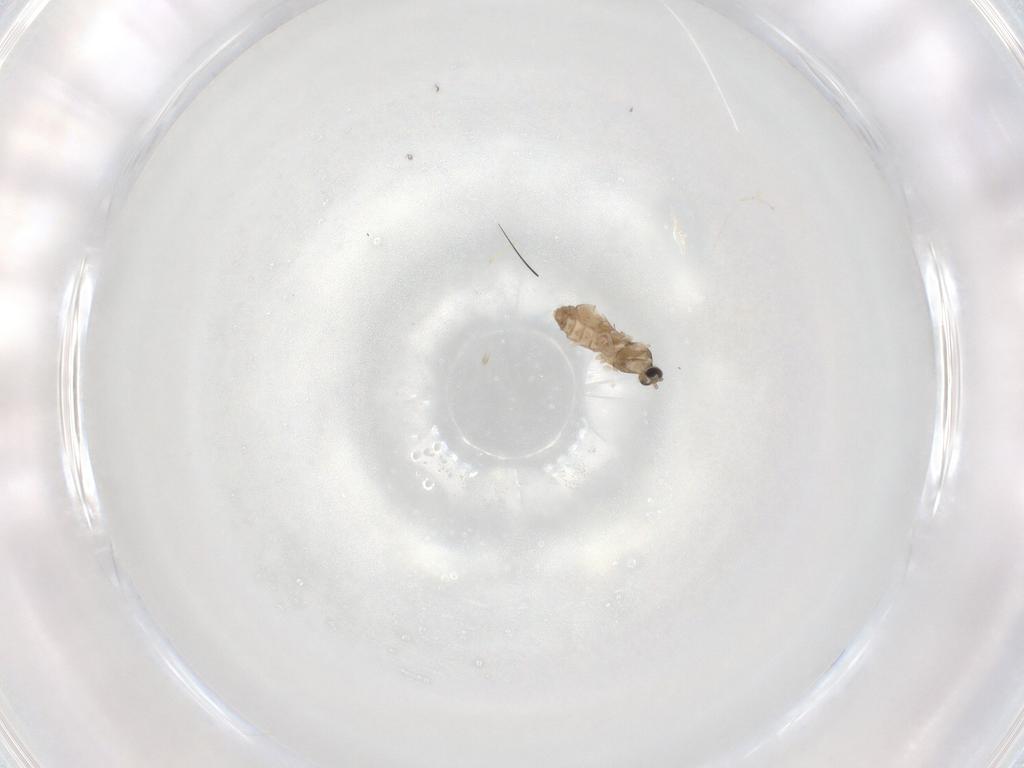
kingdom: Animalia
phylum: Arthropoda
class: Insecta
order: Diptera
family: Cecidomyiidae
